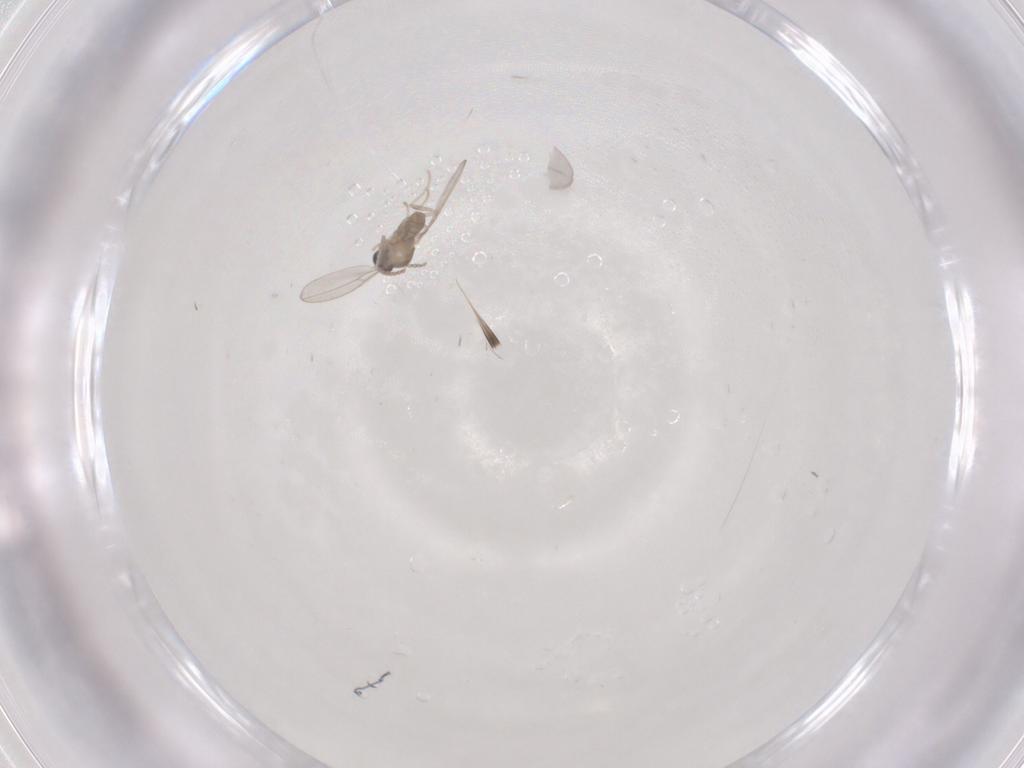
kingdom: Animalia
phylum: Arthropoda
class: Insecta
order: Diptera
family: Cecidomyiidae
